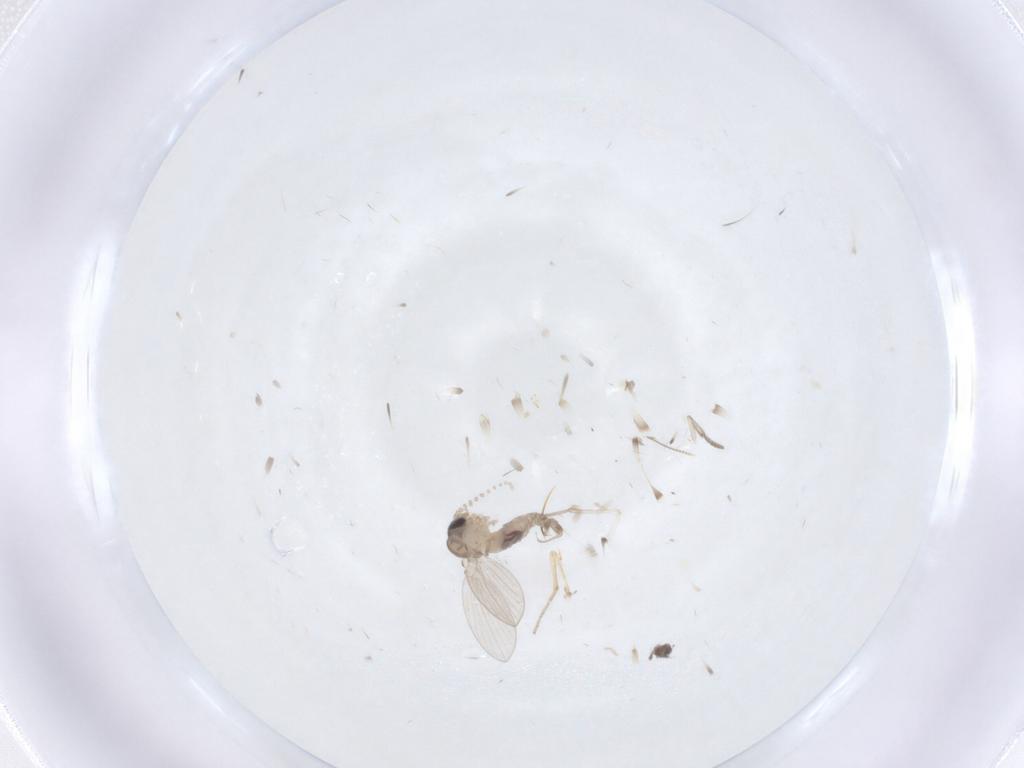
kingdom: Animalia
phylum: Arthropoda
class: Insecta
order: Diptera
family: Psychodidae
